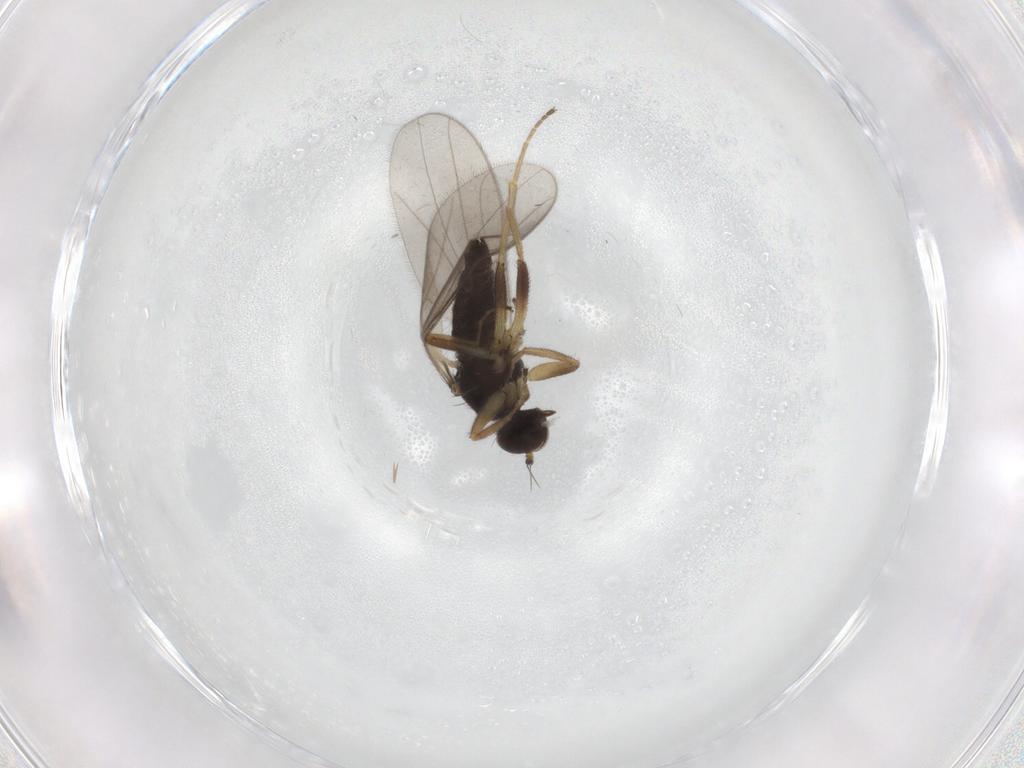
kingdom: Animalia
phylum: Arthropoda
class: Insecta
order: Diptera
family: Hybotidae
